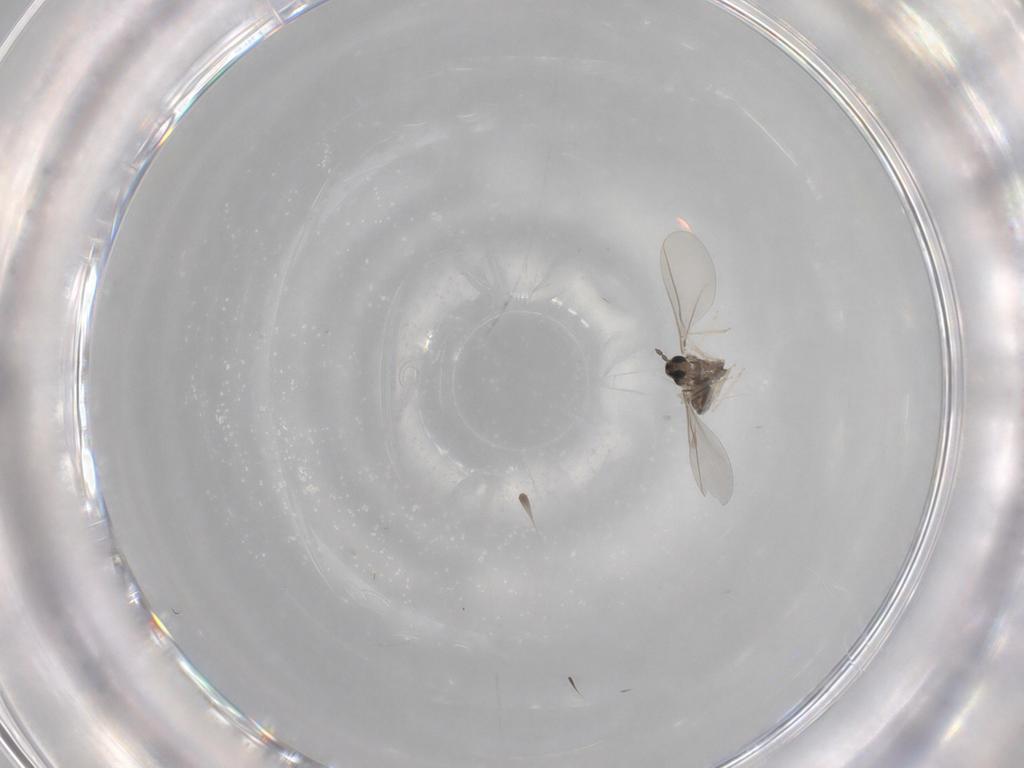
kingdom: Animalia
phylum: Arthropoda
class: Insecta
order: Diptera
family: Cecidomyiidae
